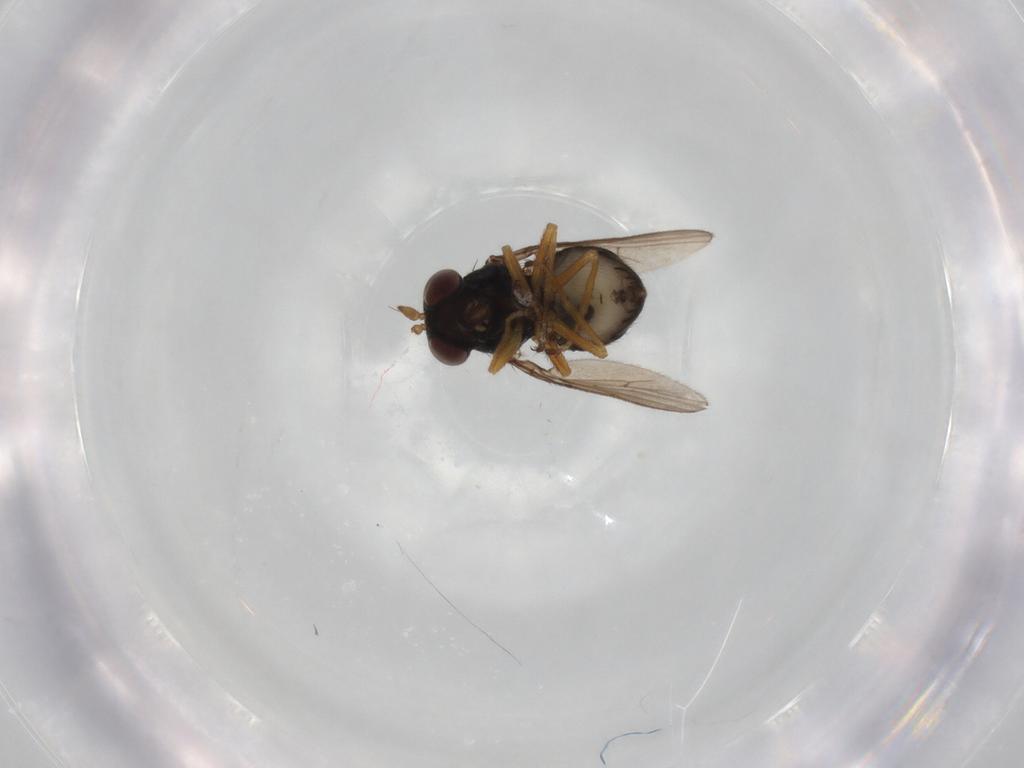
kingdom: Animalia
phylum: Arthropoda
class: Insecta
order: Diptera
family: Ephydridae
